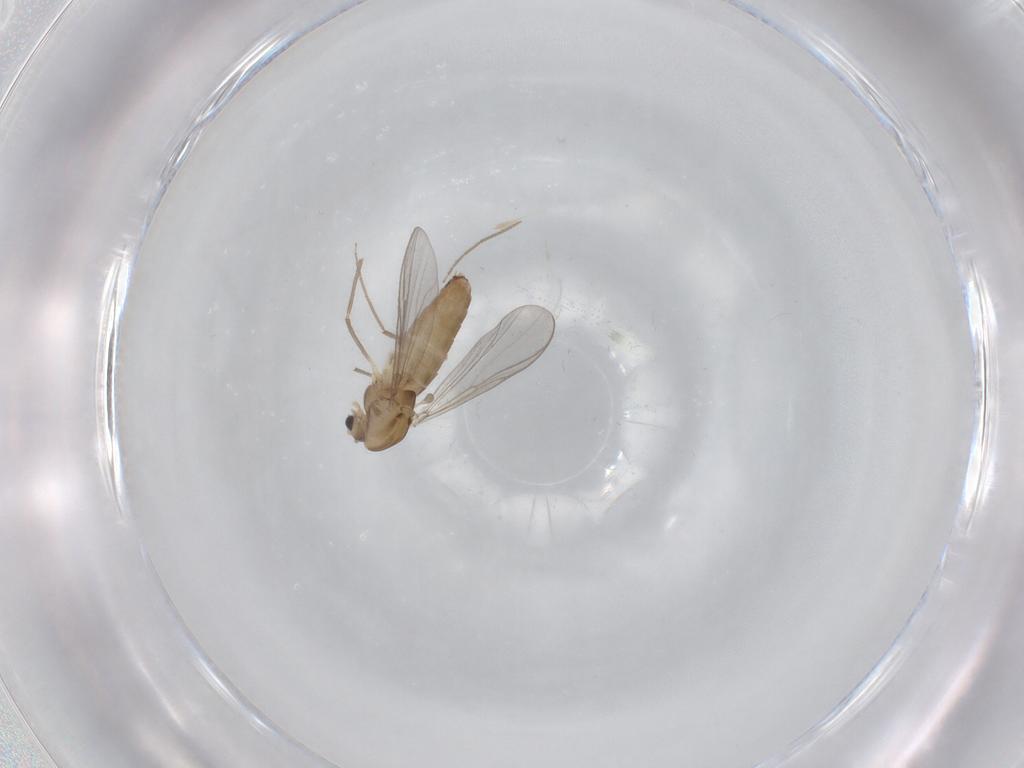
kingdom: Animalia
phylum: Arthropoda
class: Insecta
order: Diptera
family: Chironomidae
